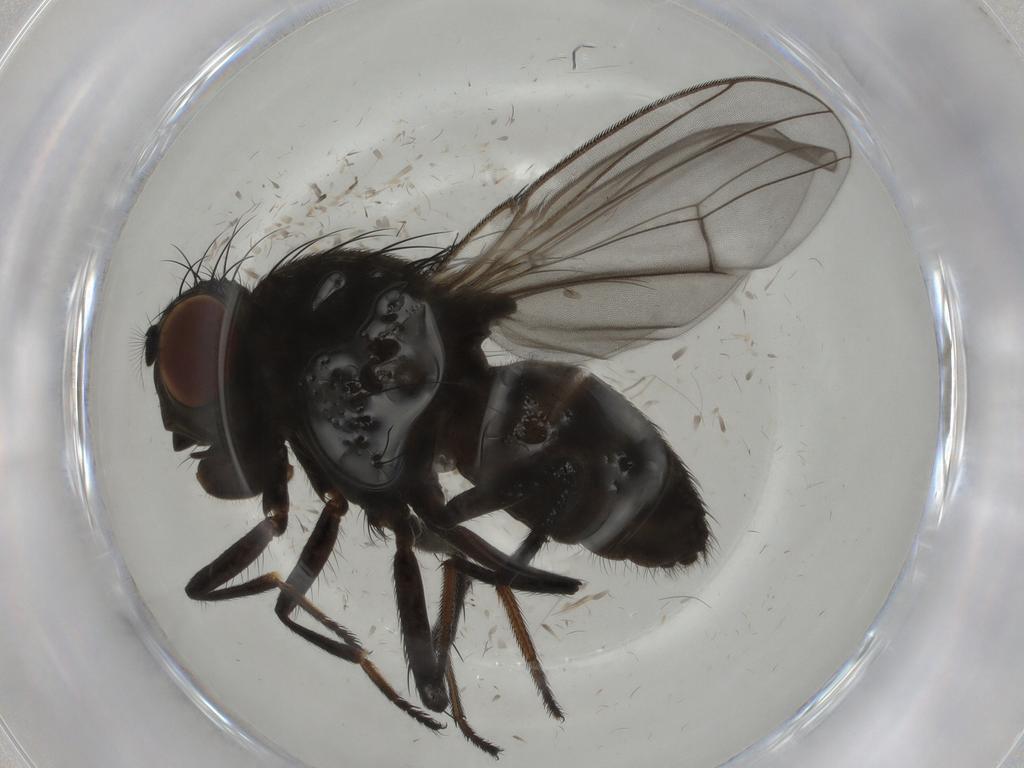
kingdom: Animalia
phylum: Arthropoda
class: Insecta
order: Diptera
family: Ephydridae
